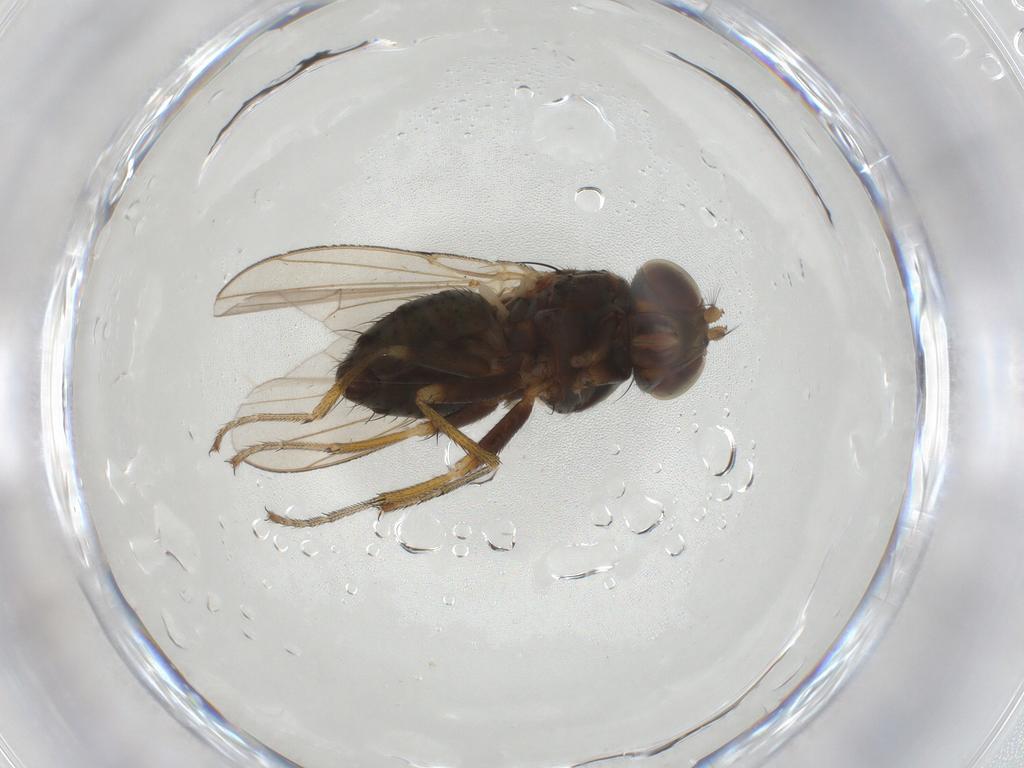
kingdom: Animalia
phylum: Arthropoda
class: Insecta
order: Diptera
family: Ephydridae
